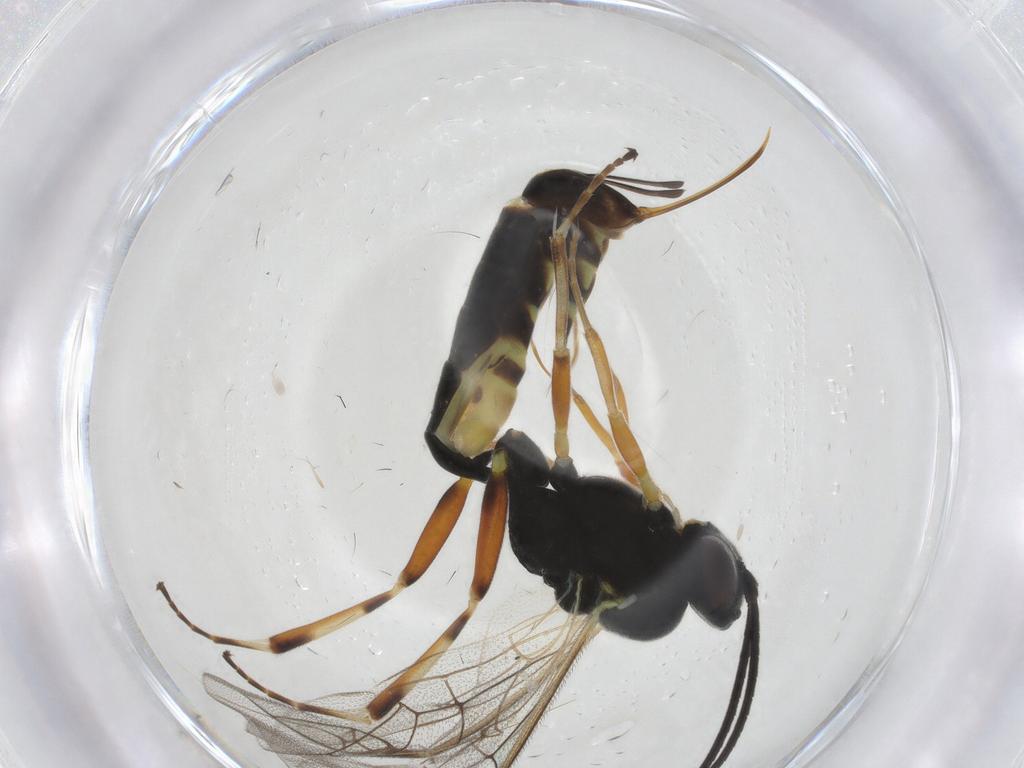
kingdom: Animalia
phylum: Arthropoda
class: Insecta
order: Hymenoptera
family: Ichneumonidae
